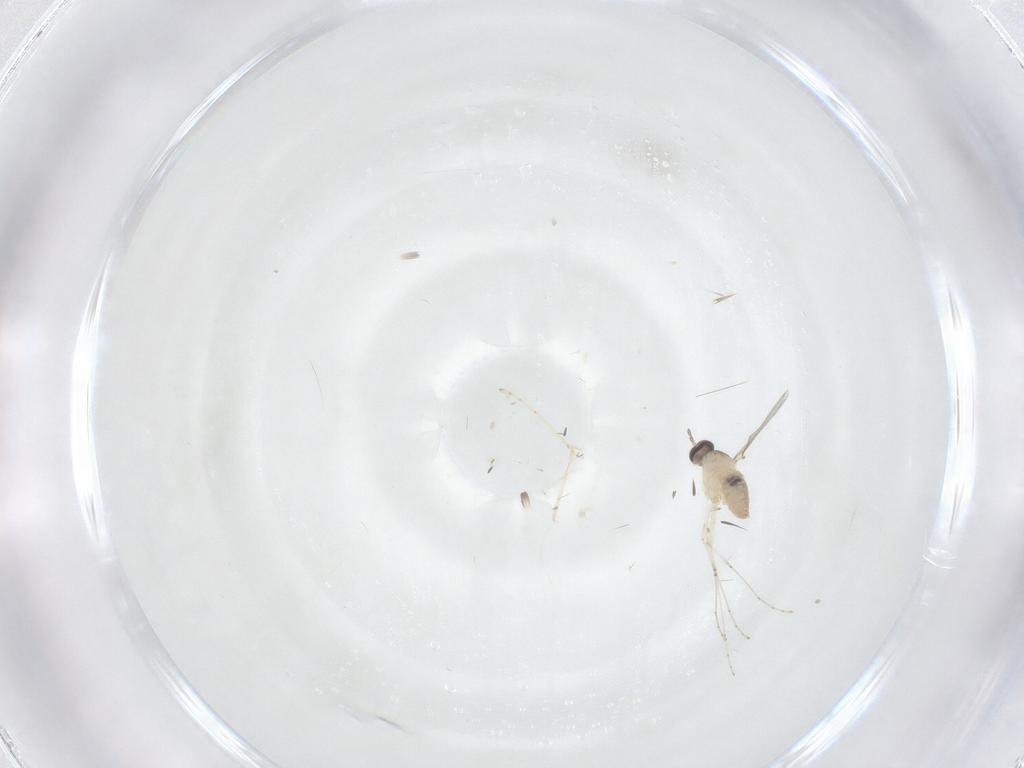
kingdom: Animalia
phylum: Arthropoda
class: Insecta
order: Diptera
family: Cecidomyiidae
